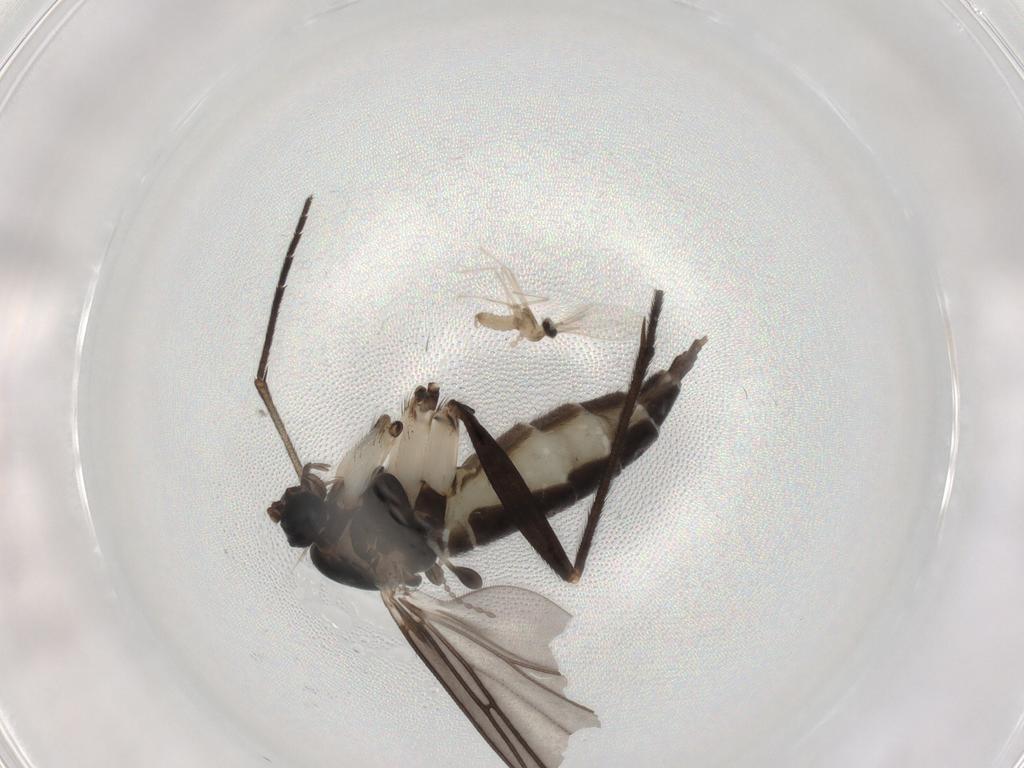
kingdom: Animalia
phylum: Arthropoda
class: Insecta
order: Diptera
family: Sciaridae
